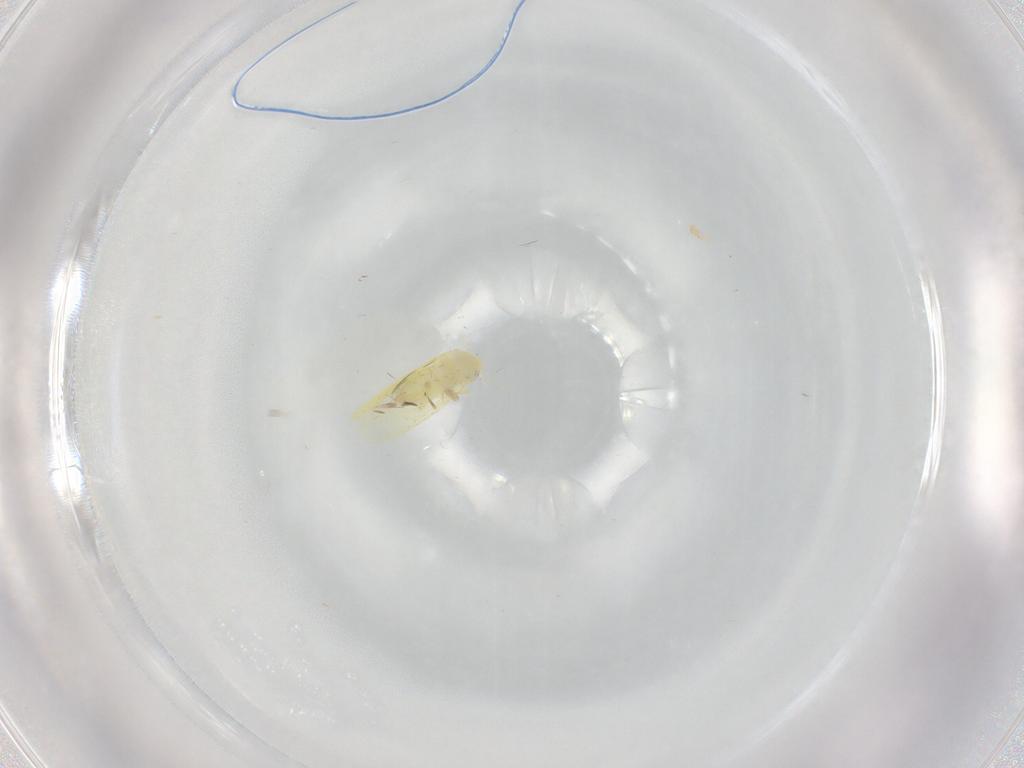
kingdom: Animalia
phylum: Arthropoda
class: Insecta
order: Hemiptera
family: Aleyrodidae
